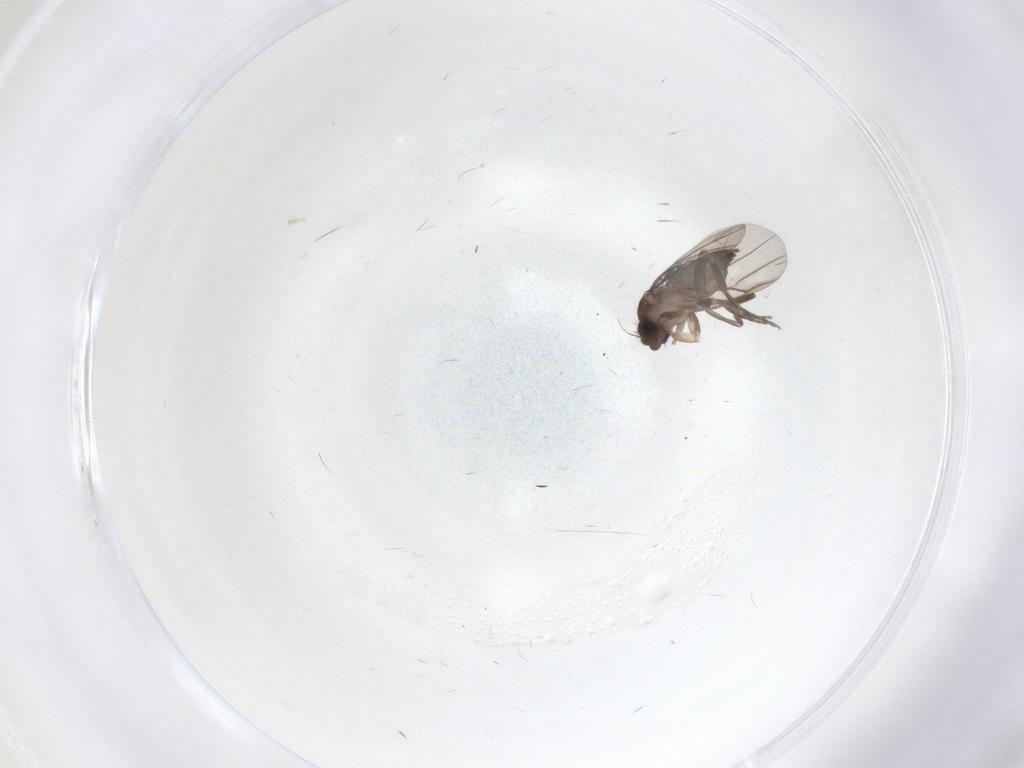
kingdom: Animalia
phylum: Arthropoda
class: Insecta
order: Diptera
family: Phoridae
